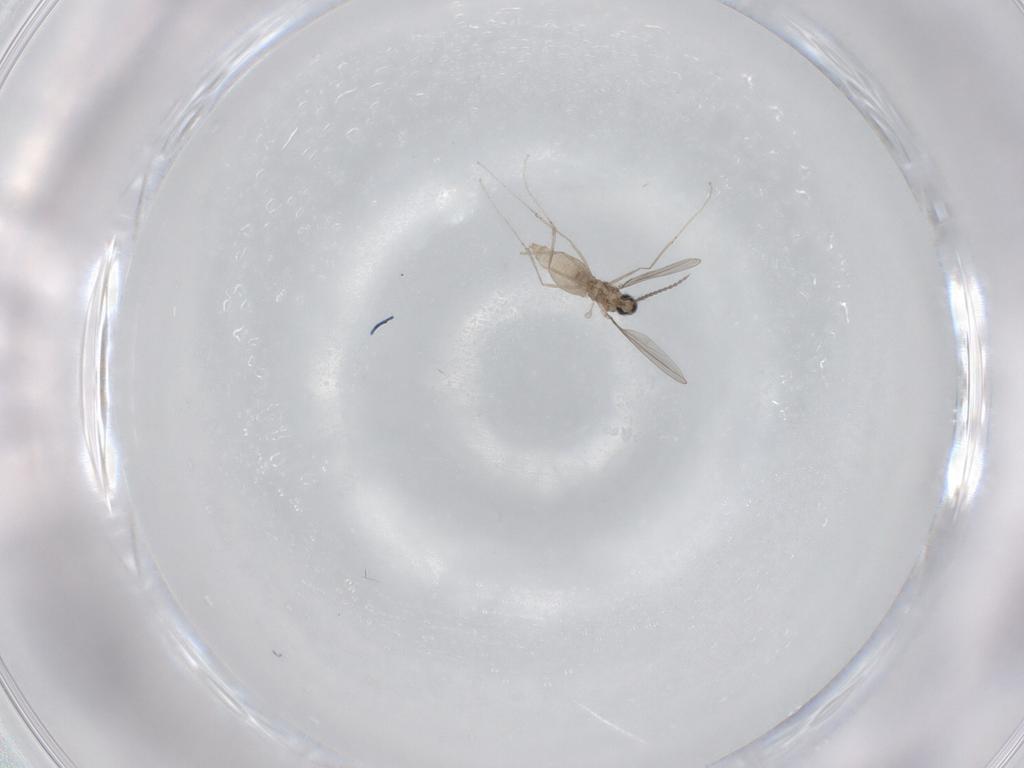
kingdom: Animalia
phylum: Arthropoda
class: Insecta
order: Diptera
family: Cecidomyiidae
